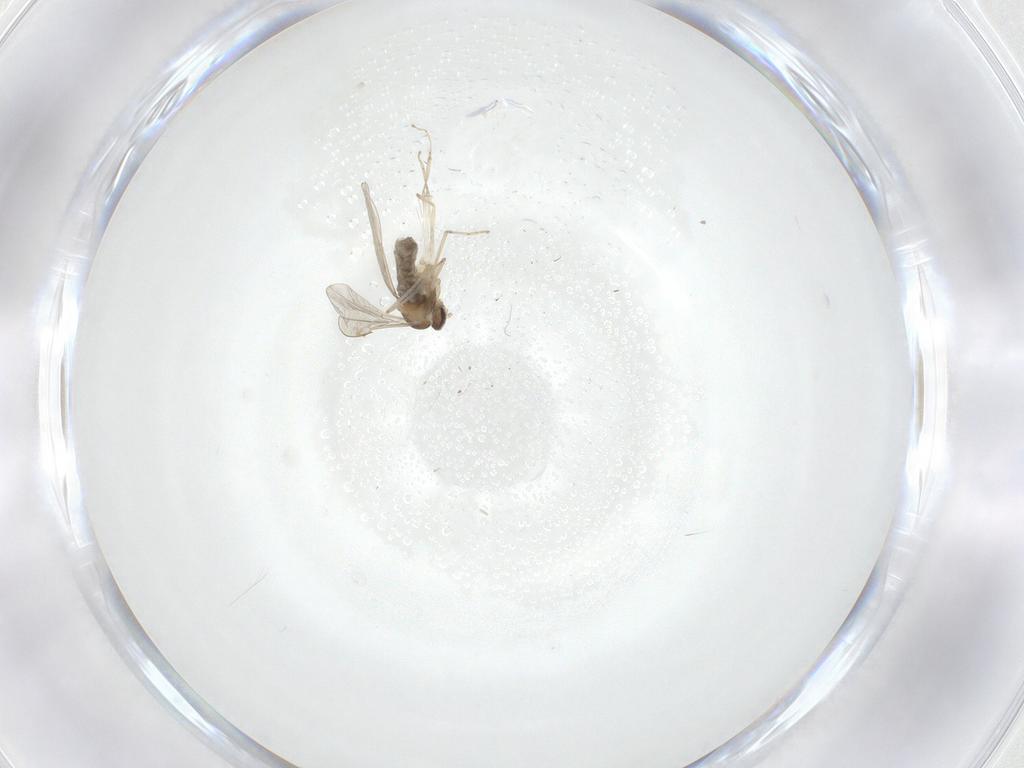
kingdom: Animalia
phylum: Arthropoda
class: Insecta
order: Diptera
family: Cecidomyiidae
